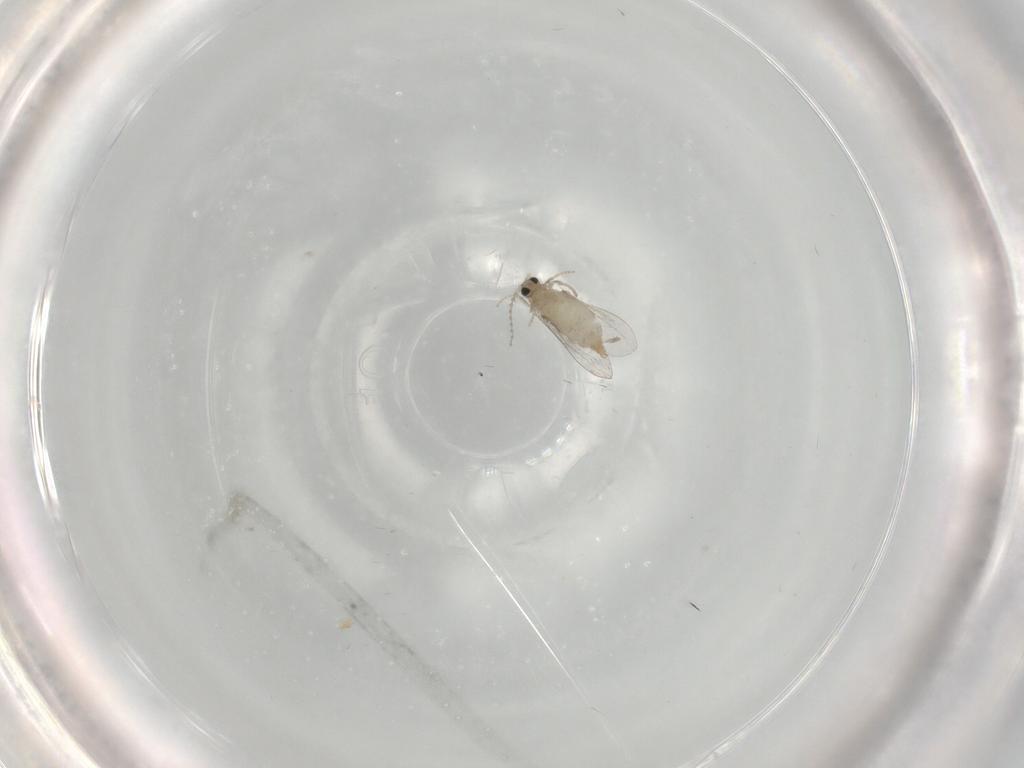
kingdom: Animalia
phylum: Arthropoda
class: Insecta
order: Diptera
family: Cecidomyiidae
